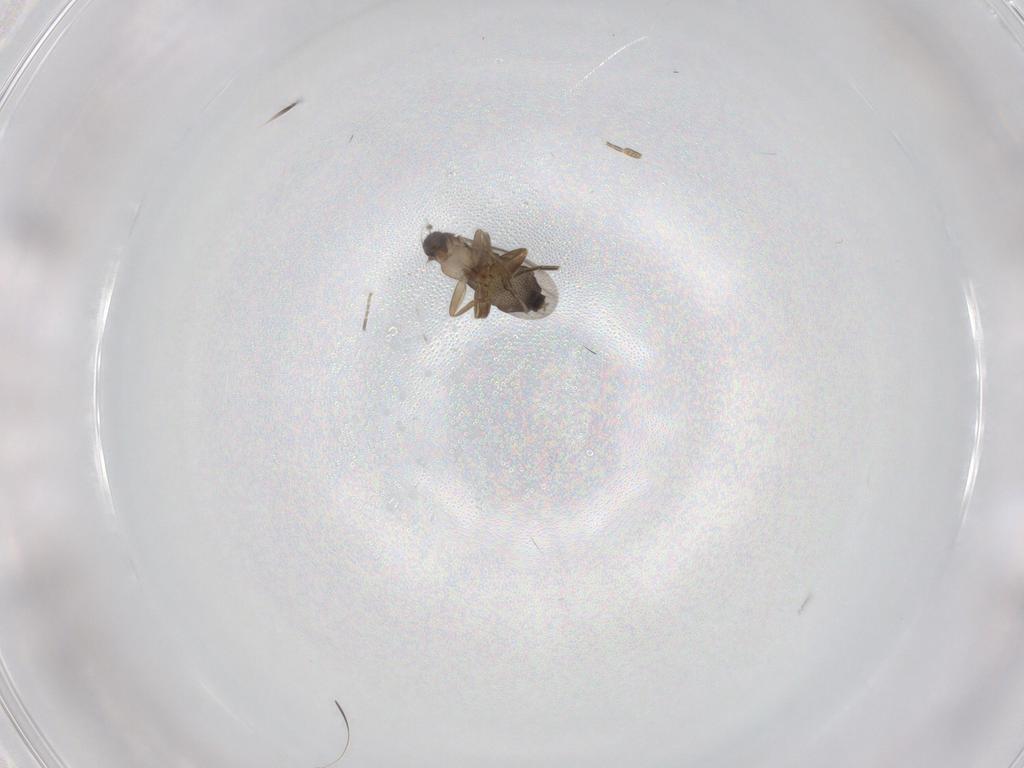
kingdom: Animalia
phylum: Arthropoda
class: Insecta
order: Diptera
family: Phoridae
